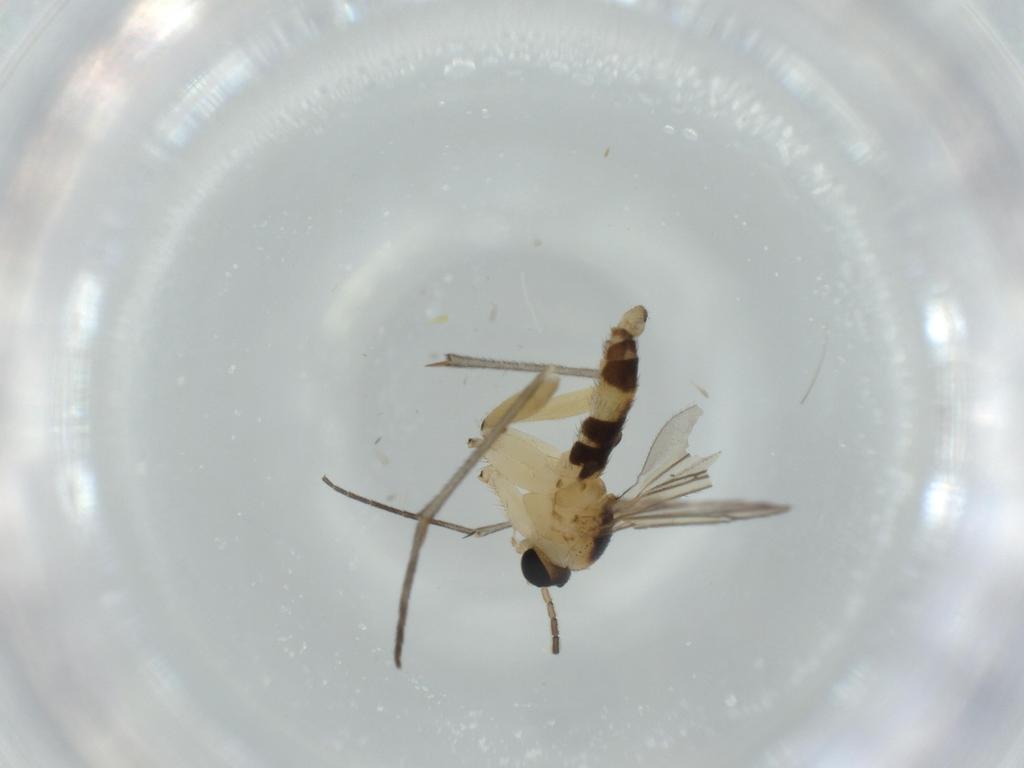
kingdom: Animalia
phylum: Arthropoda
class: Insecta
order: Diptera
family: Sciaridae
